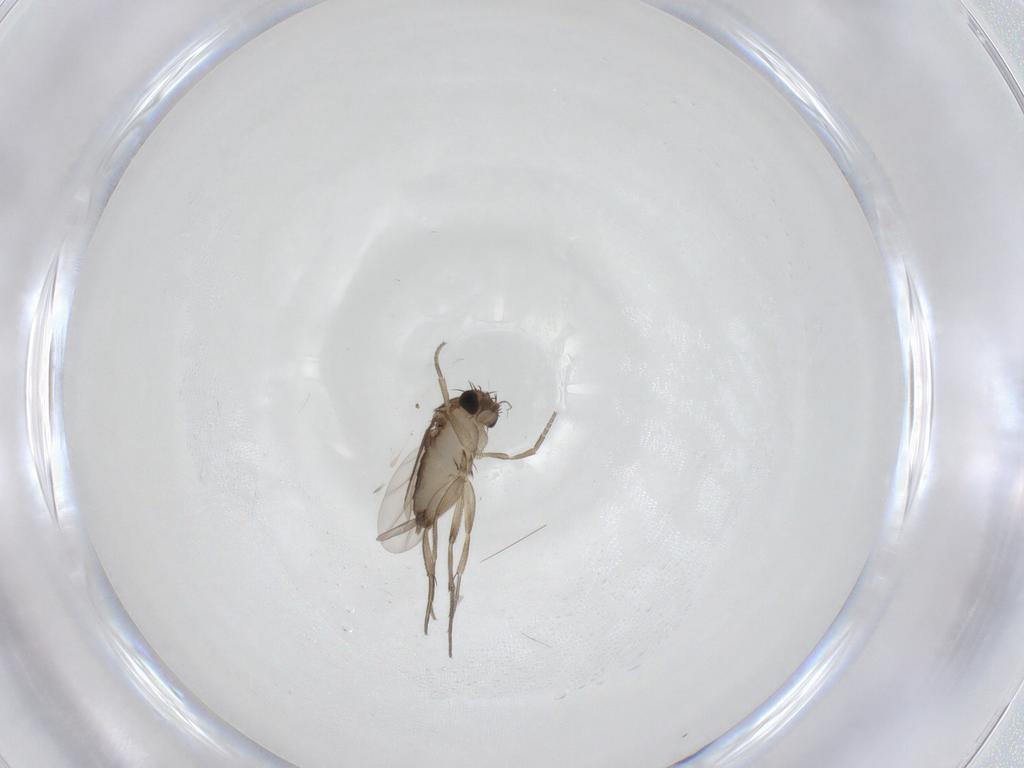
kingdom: Animalia
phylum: Arthropoda
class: Insecta
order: Diptera
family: Phoridae
